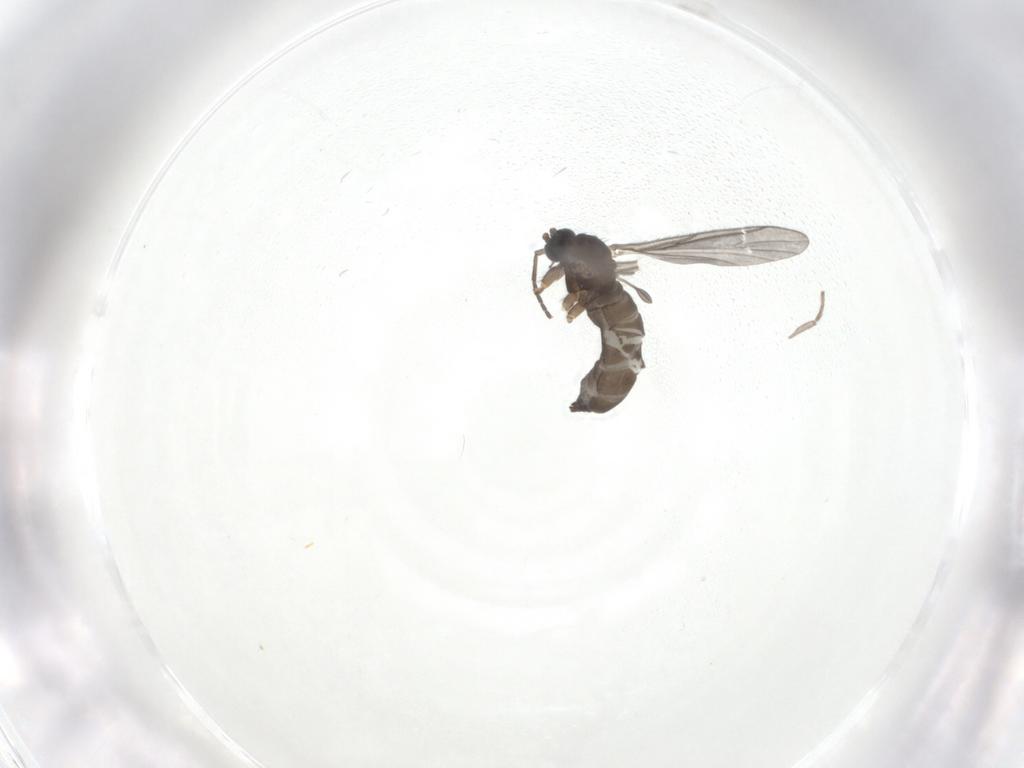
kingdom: Animalia
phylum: Arthropoda
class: Insecta
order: Diptera
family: Sciaridae
